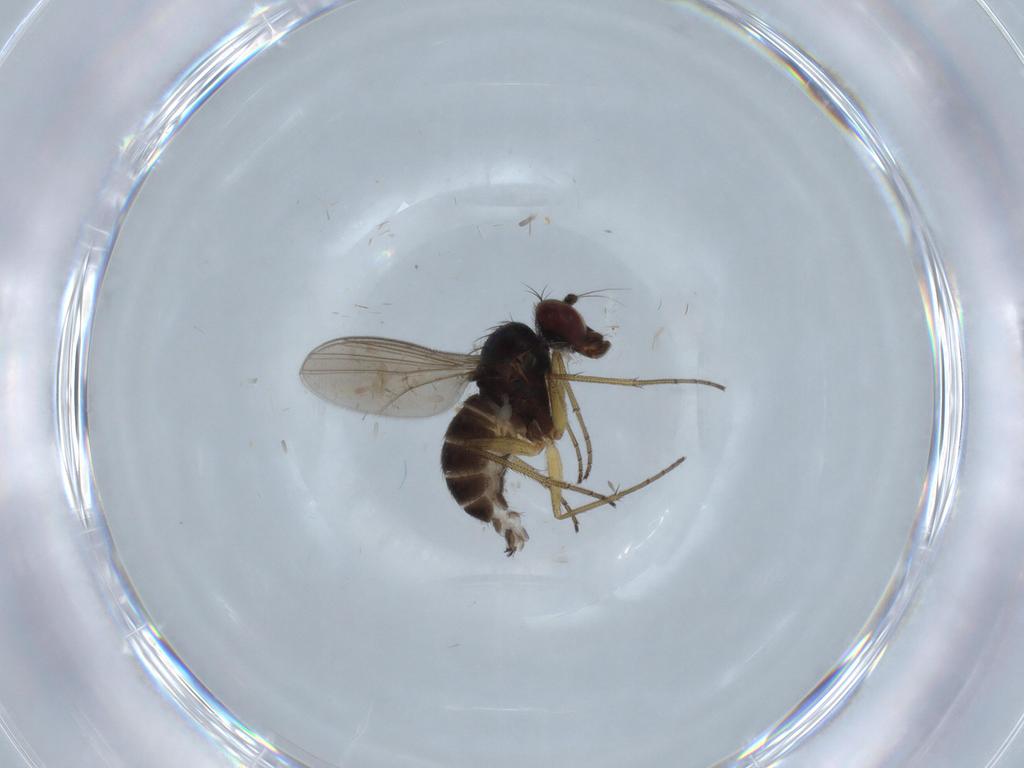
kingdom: Animalia
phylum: Arthropoda
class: Insecta
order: Diptera
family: Dolichopodidae
